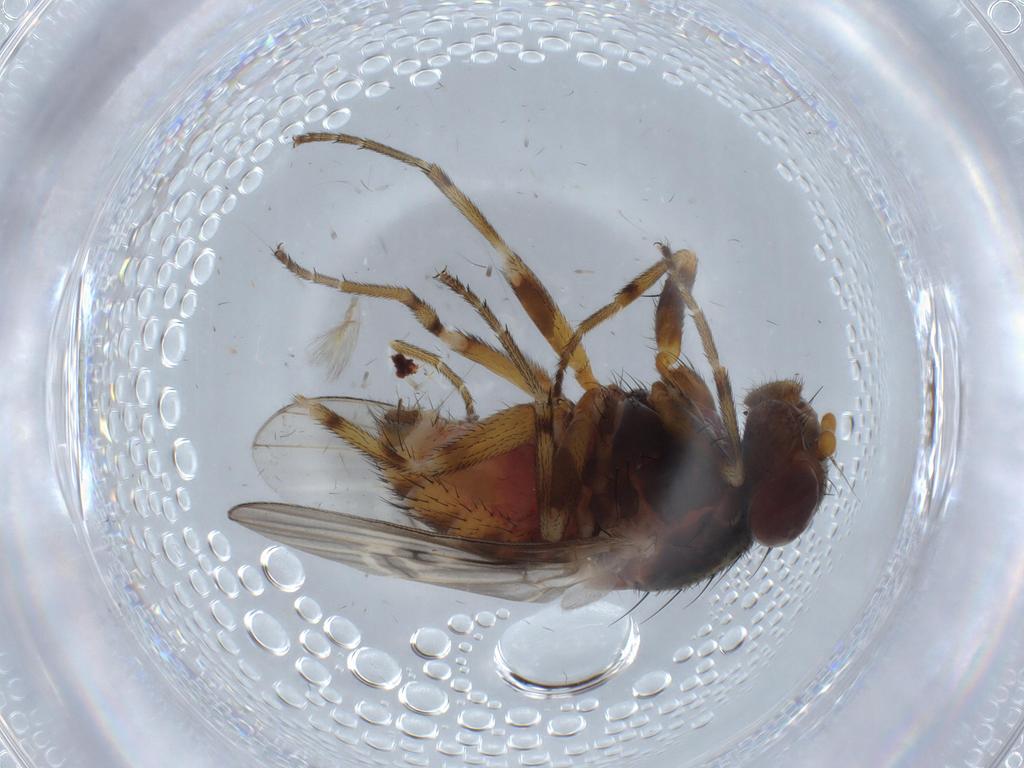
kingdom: Animalia
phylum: Arthropoda
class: Insecta
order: Diptera
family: Odiniidae
